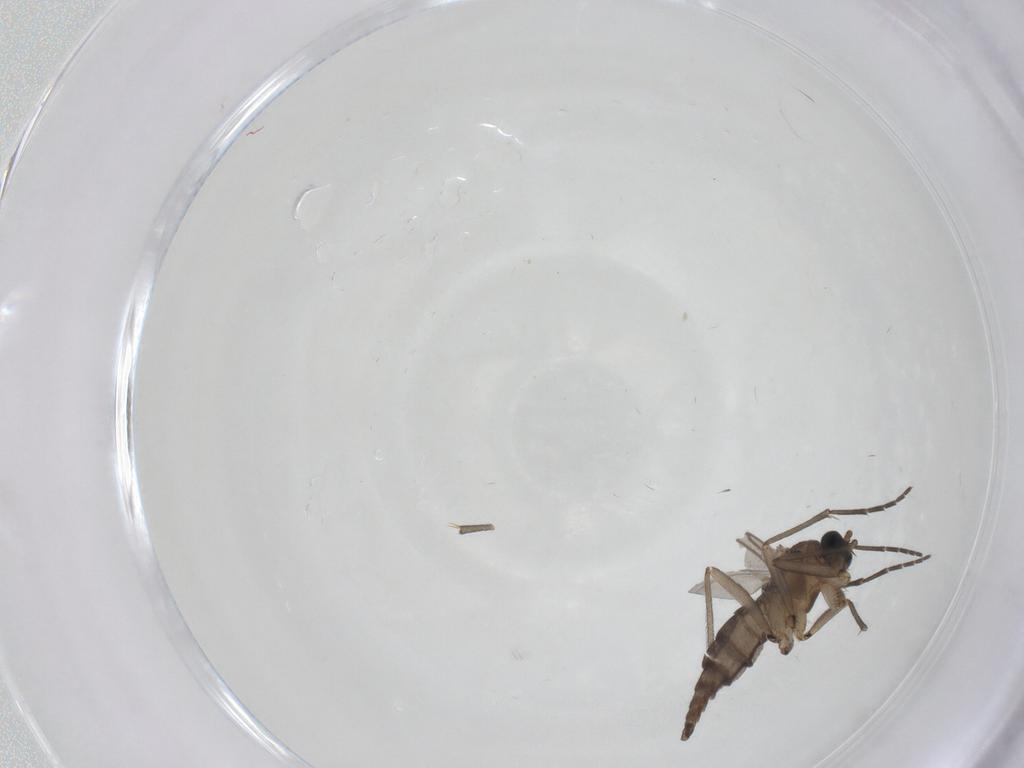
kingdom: Animalia
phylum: Arthropoda
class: Insecta
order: Diptera
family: Sciaridae
